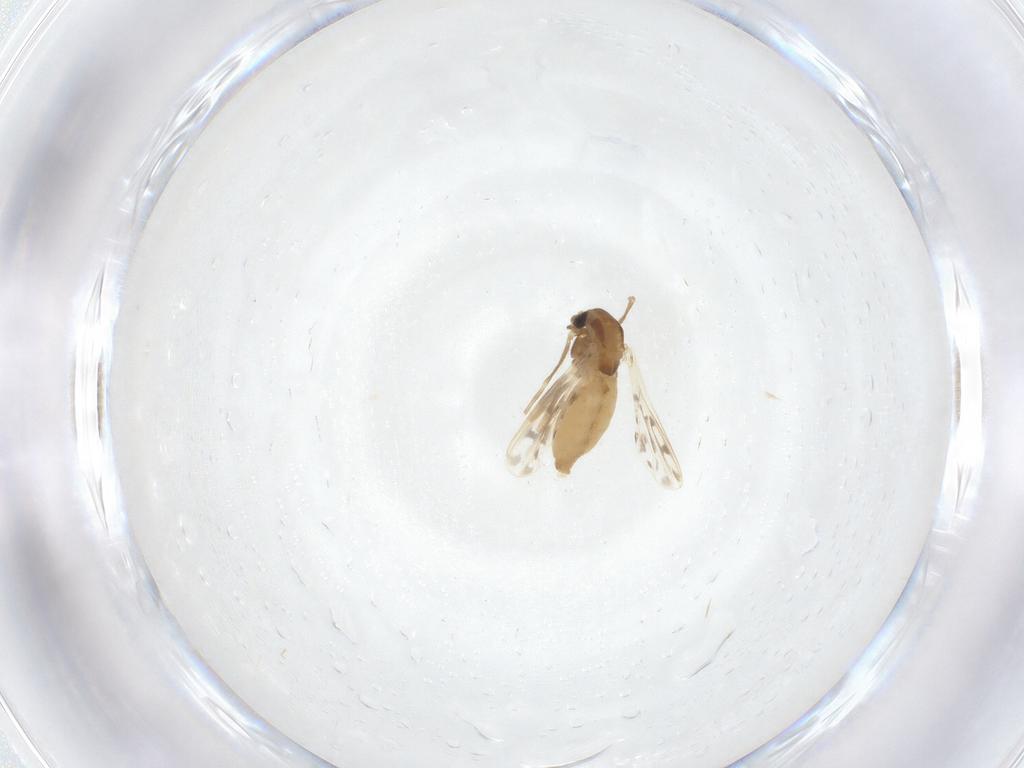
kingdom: Animalia
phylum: Arthropoda
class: Insecta
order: Diptera
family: Chironomidae
